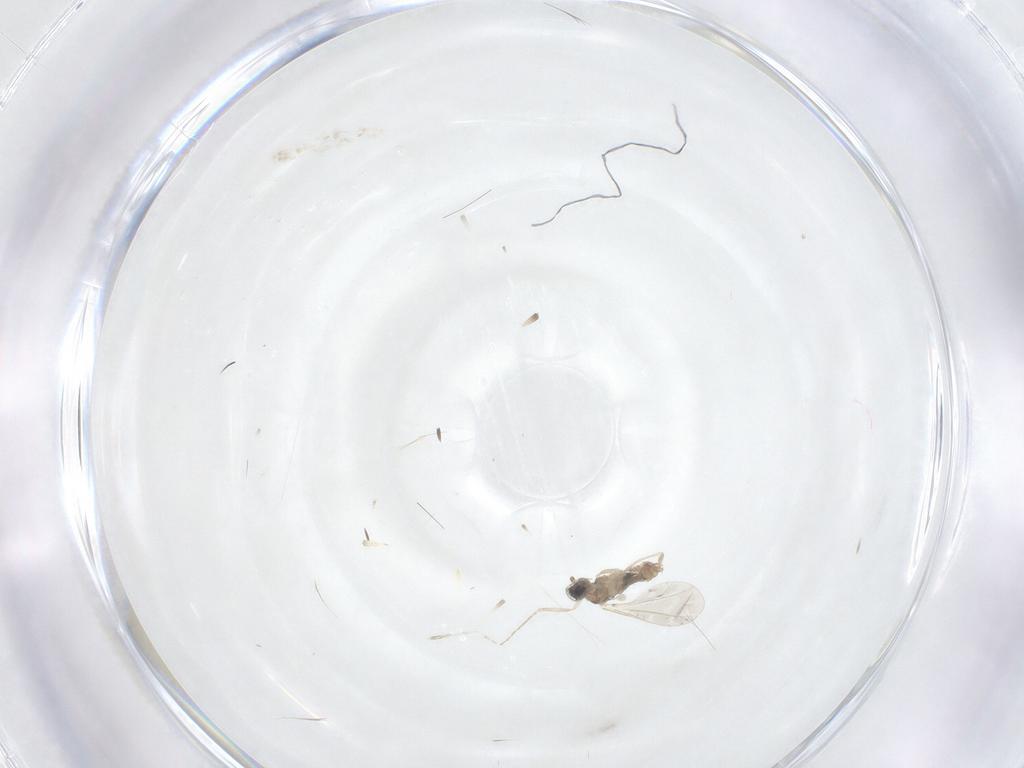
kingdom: Animalia
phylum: Arthropoda
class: Insecta
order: Diptera
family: Cecidomyiidae
